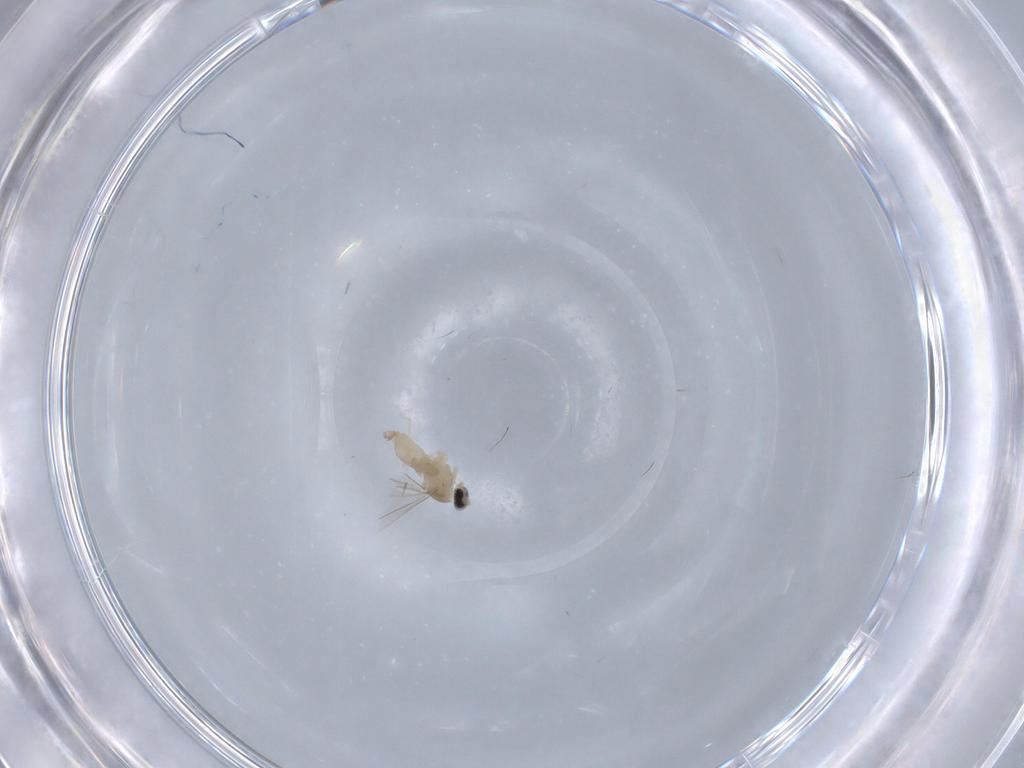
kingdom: Animalia
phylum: Arthropoda
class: Insecta
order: Diptera
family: Cecidomyiidae
